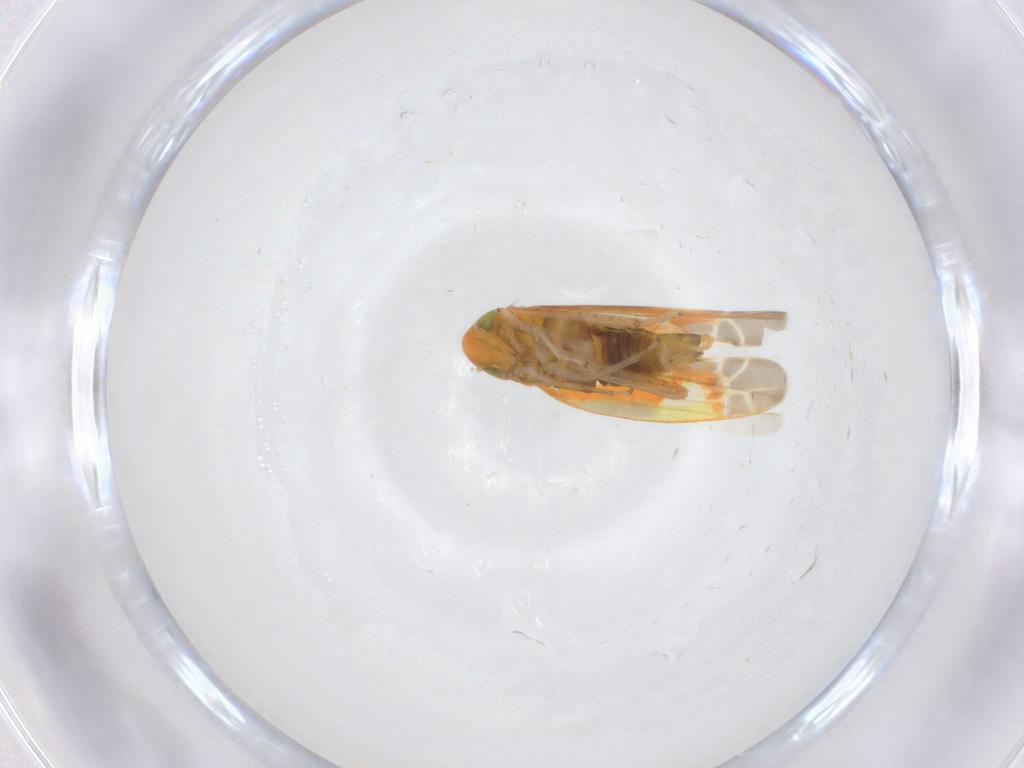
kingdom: Animalia
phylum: Arthropoda
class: Insecta
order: Hemiptera
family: Cicadellidae
